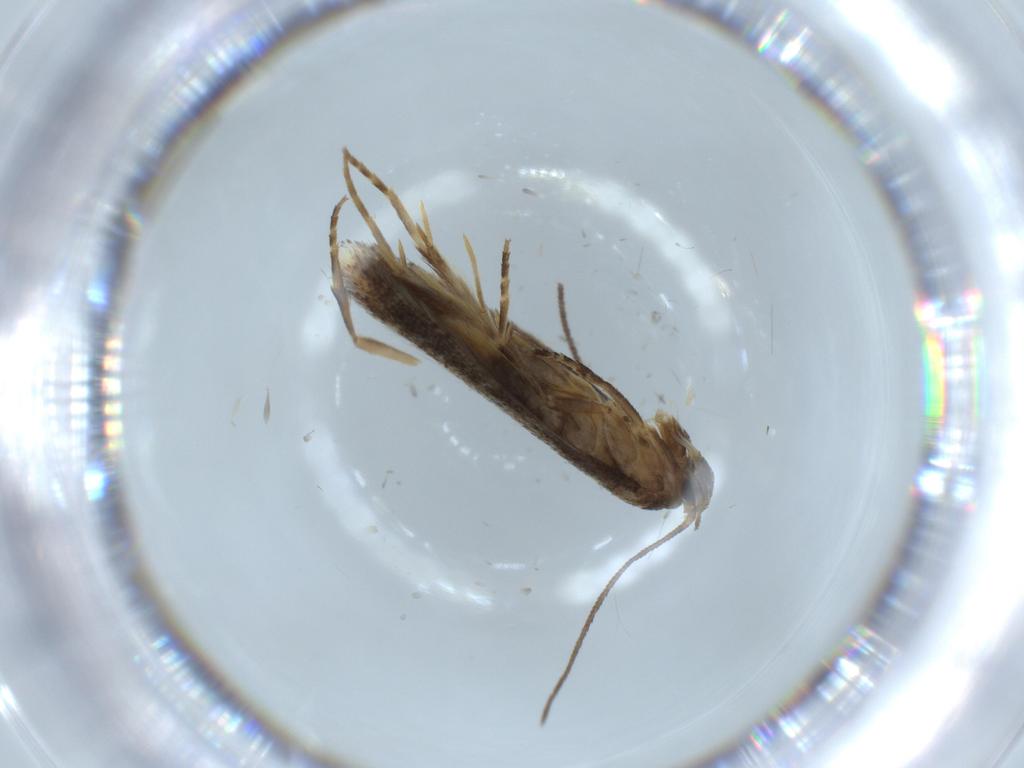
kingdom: Animalia
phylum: Arthropoda
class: Insecta
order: Lepidoptera
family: Elachistidae
